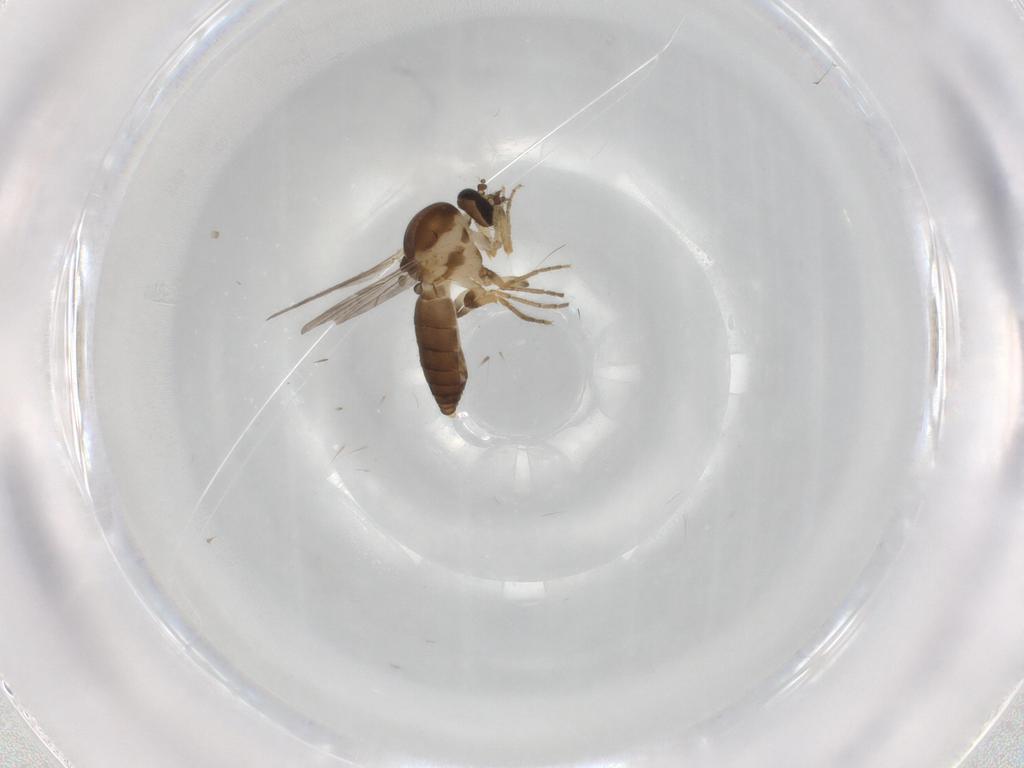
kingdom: Animalia
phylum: Arthropoda
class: Insecta
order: Diptera
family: Ceratopogonidae
